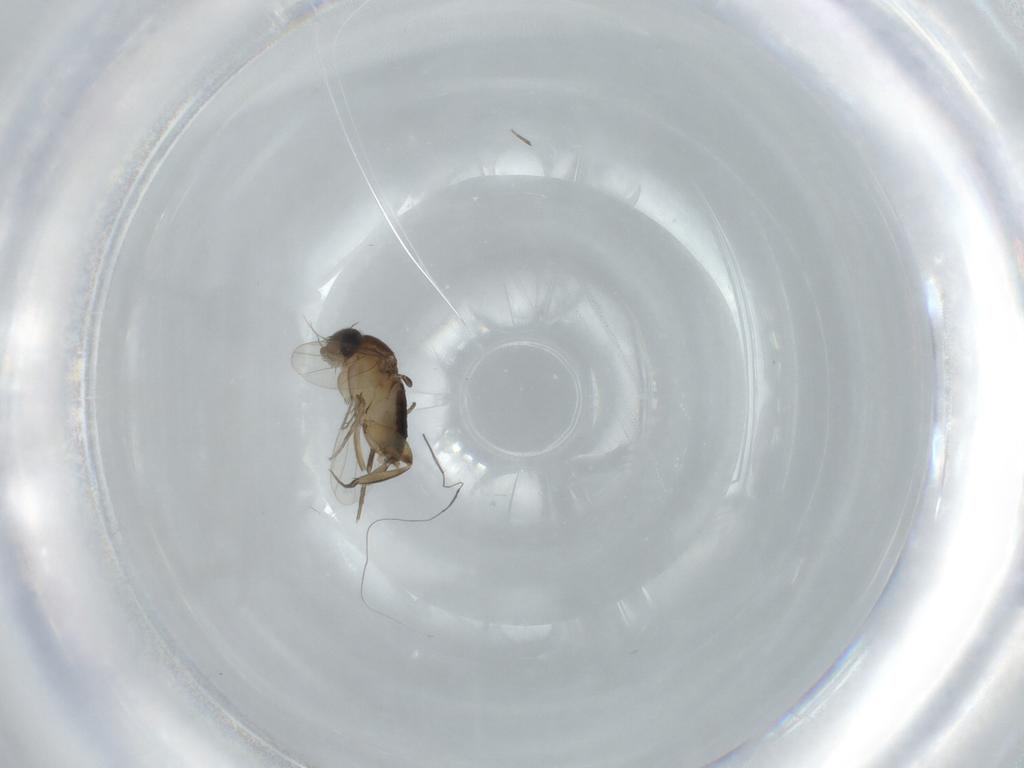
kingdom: Animalia
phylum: Arthropoda
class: Insecta
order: Diptera
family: Phoridae
